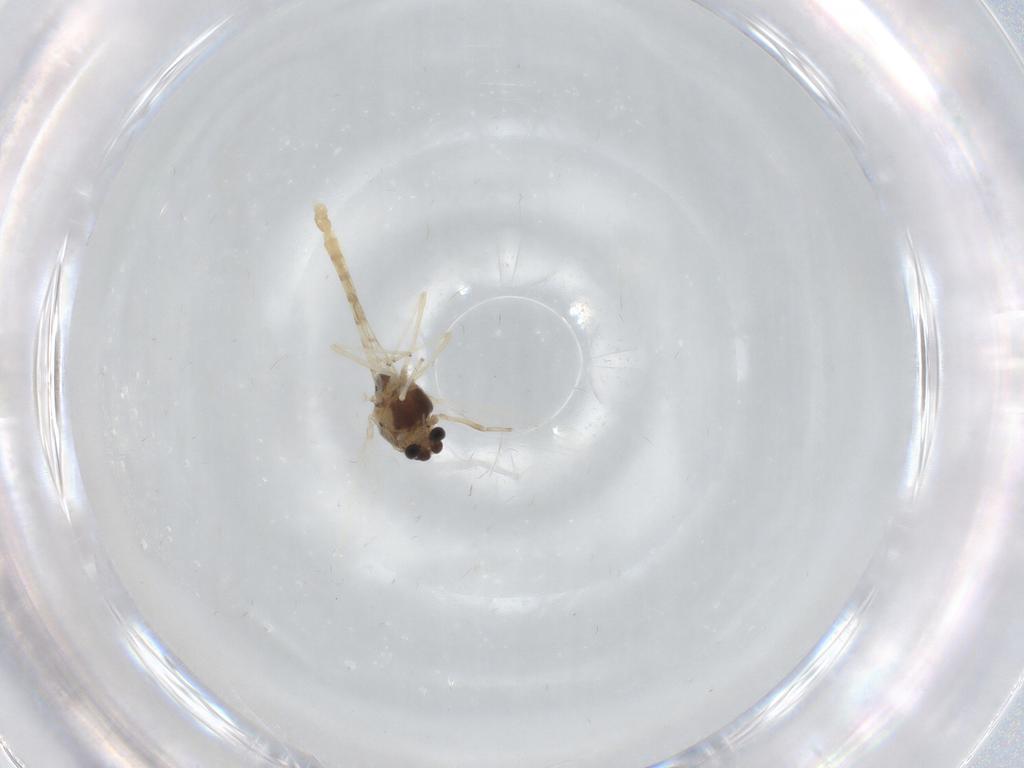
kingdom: Animalia
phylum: Arthropoda
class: Insecta
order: Diptera
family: Chironomidae
